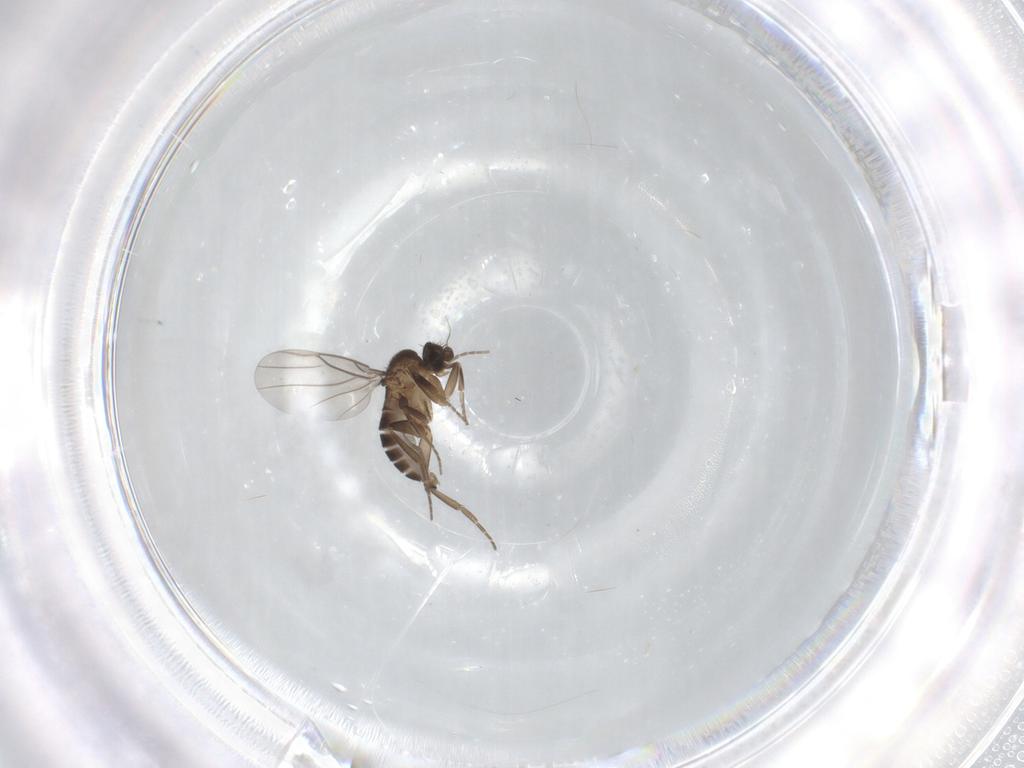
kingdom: Animalia
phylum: Arthropoda
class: Insecta
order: Diptera
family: Phoridae
